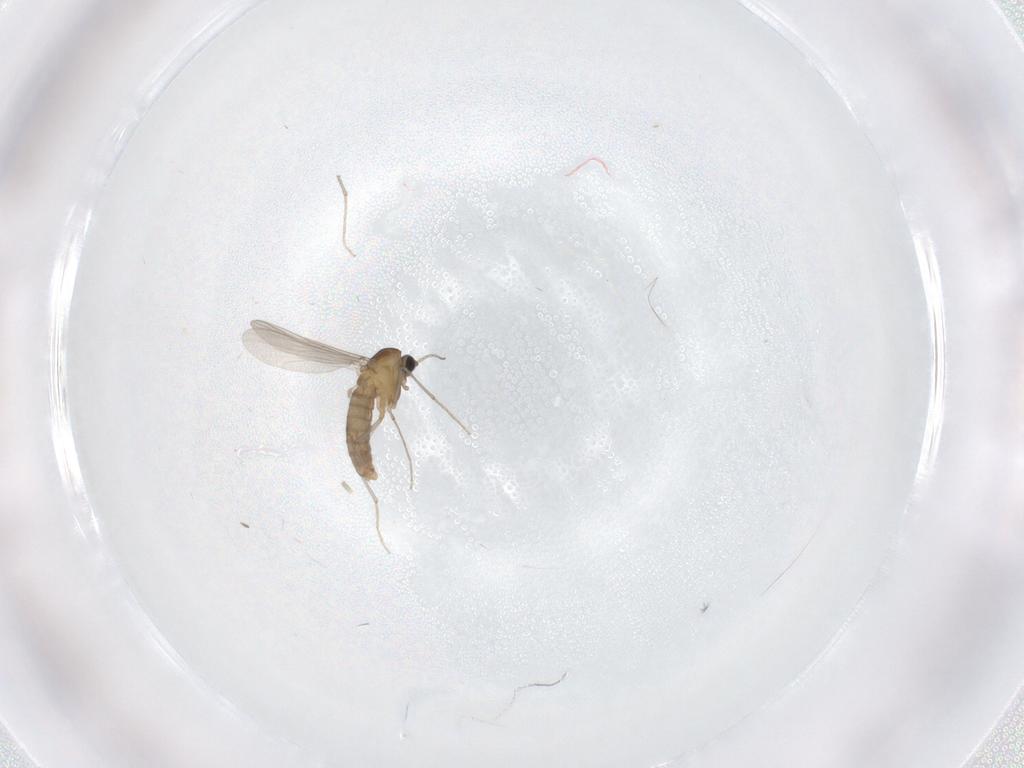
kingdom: Animalia
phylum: Arthropoda
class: Insecta
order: Diptera
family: Chironomidae
